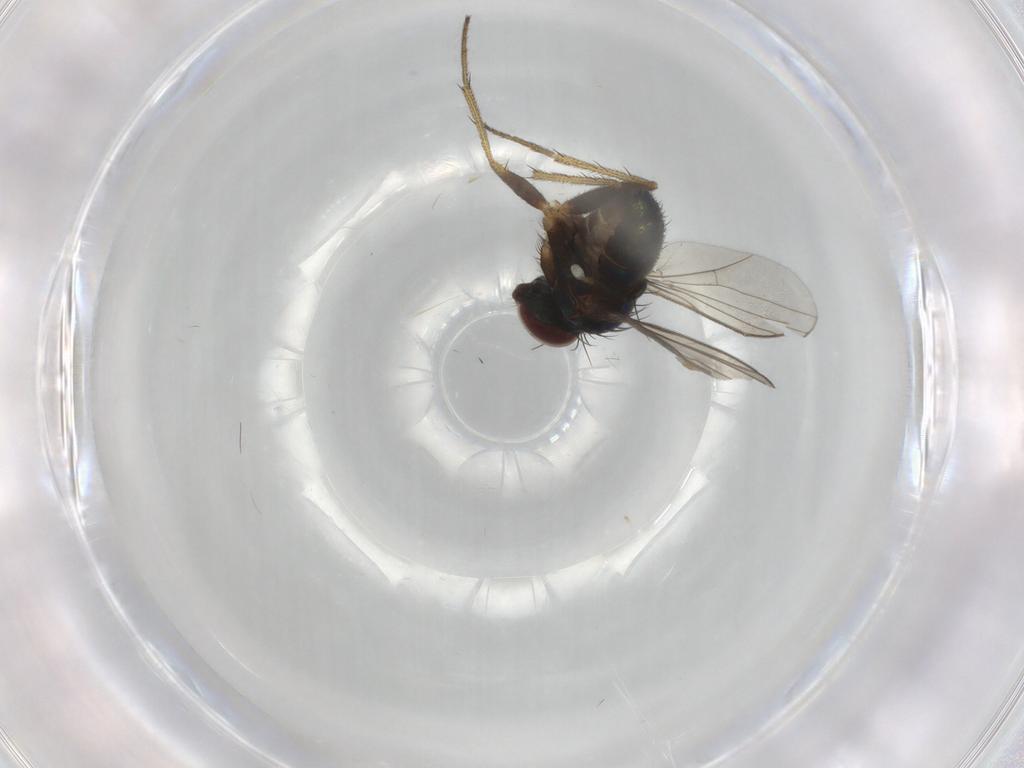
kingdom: Animalia
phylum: Arthropoda
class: Insecta
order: Diptera
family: Dolichopodidae
